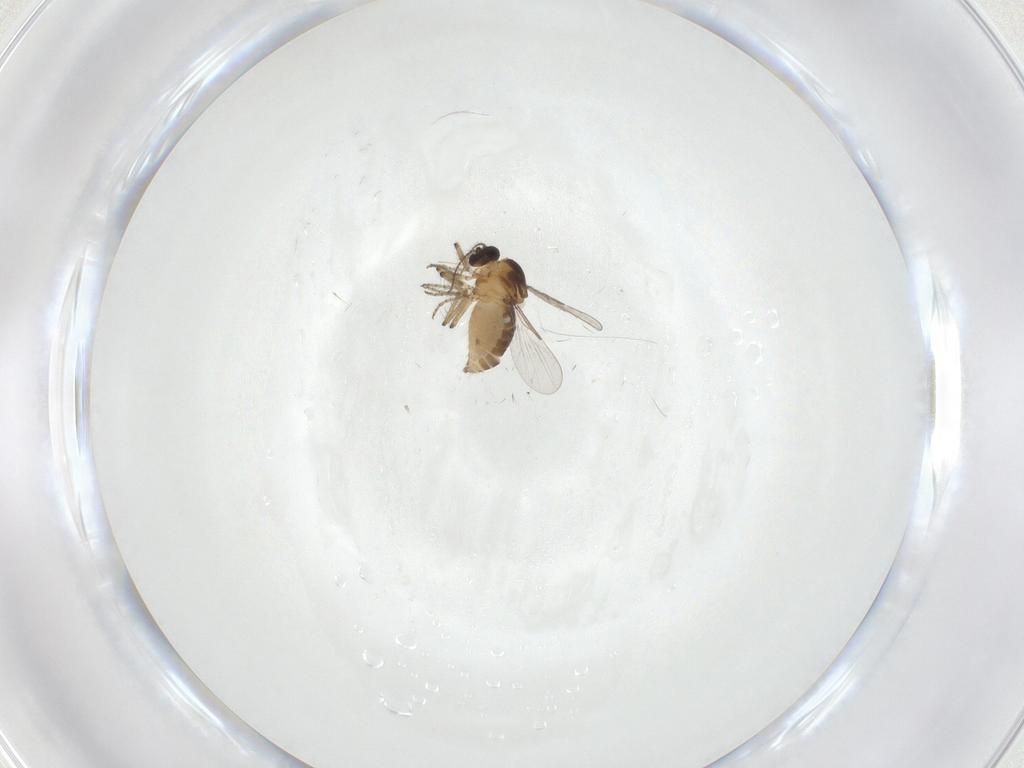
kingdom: Animalia
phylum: Arthropoda
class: Insecta
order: Diptera
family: Ceratopogonidae
